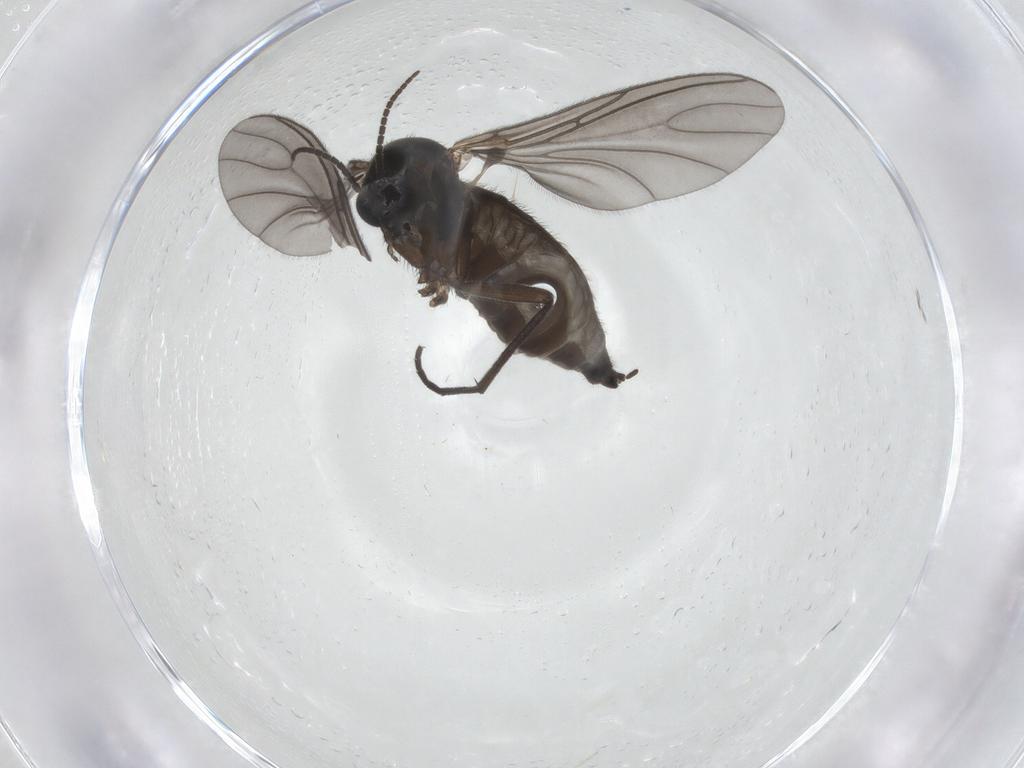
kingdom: Animalia
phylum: Arthropoda
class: Insecta
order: Diptera
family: Sciaridae
